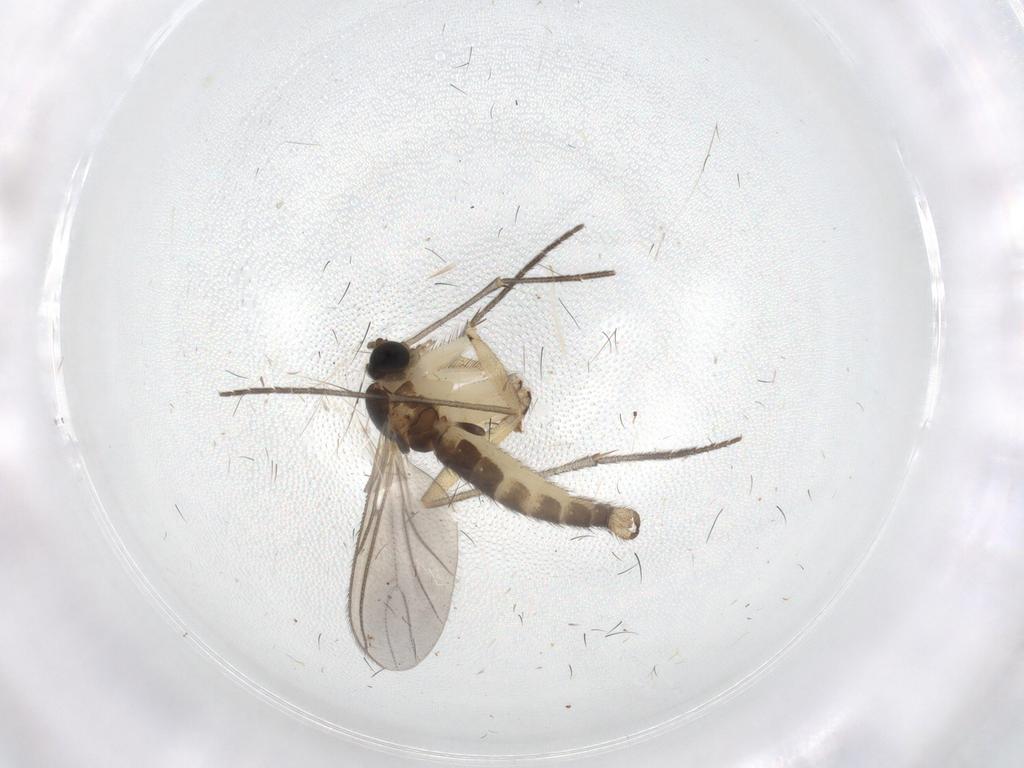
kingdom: Animalia
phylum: Arthropoda
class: Insecta
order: Diptera
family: Sciaridae
